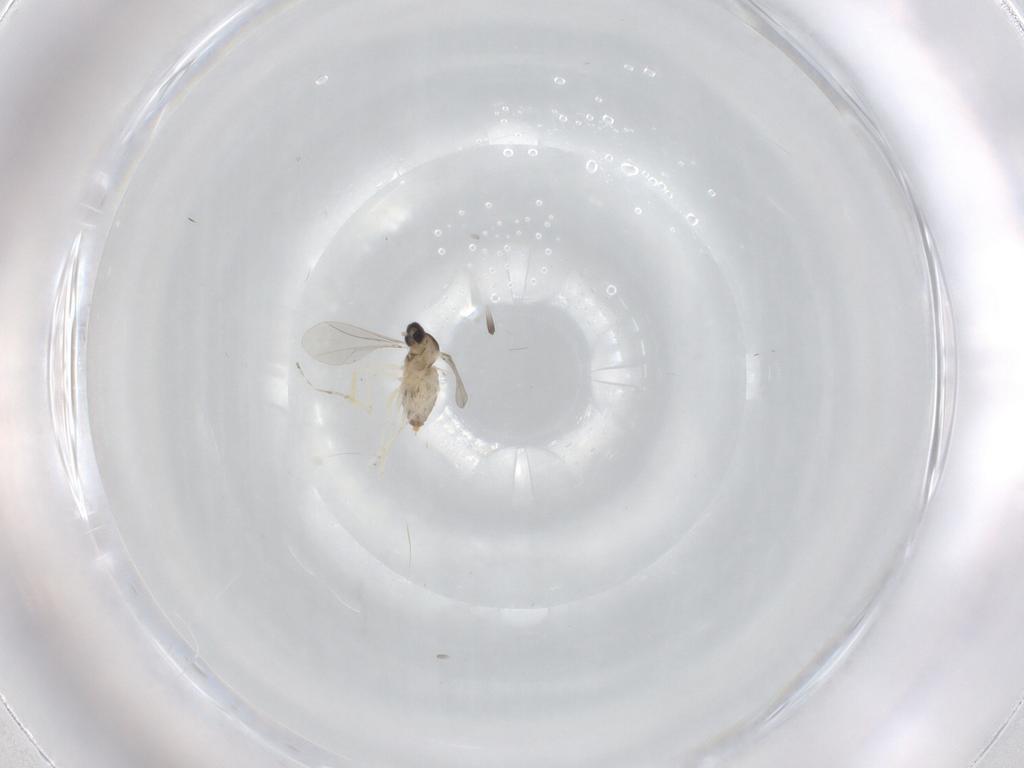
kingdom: Animalia
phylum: Arthropoda
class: Insecta
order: Diptera
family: Cecidomyiidae
